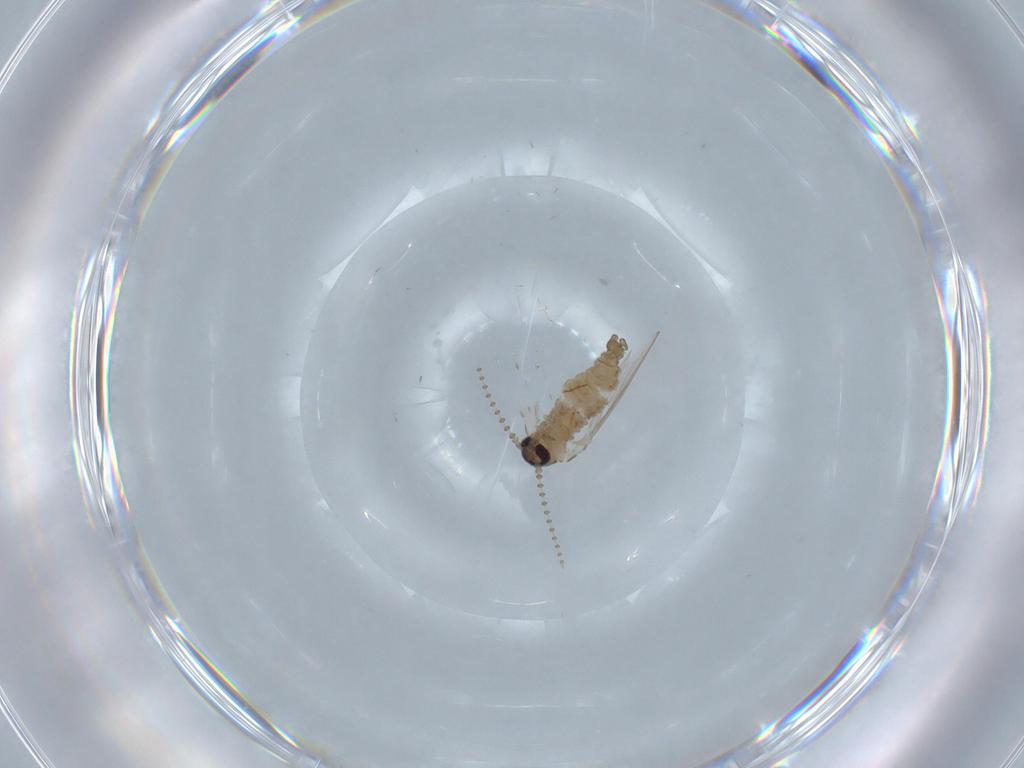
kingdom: Animalia
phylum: Arthropoda
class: Insecta
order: Diptera
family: Psychodidae
